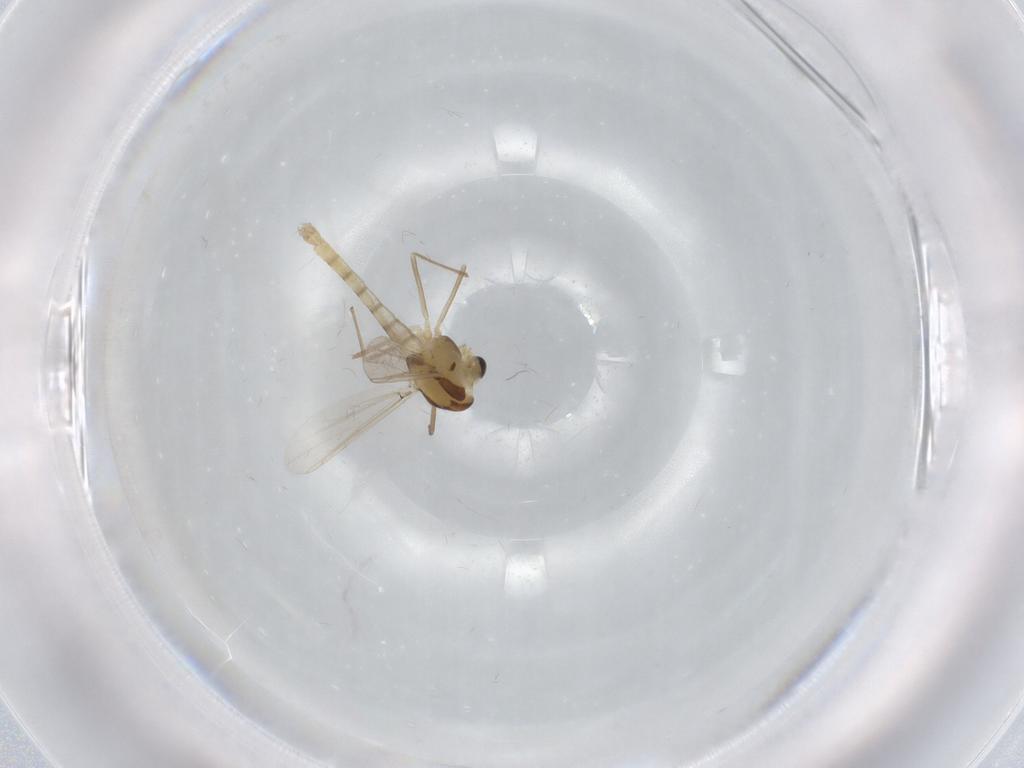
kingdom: Animalia
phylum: Arthropoda
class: Insecta
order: Diptera
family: Chironomidae
